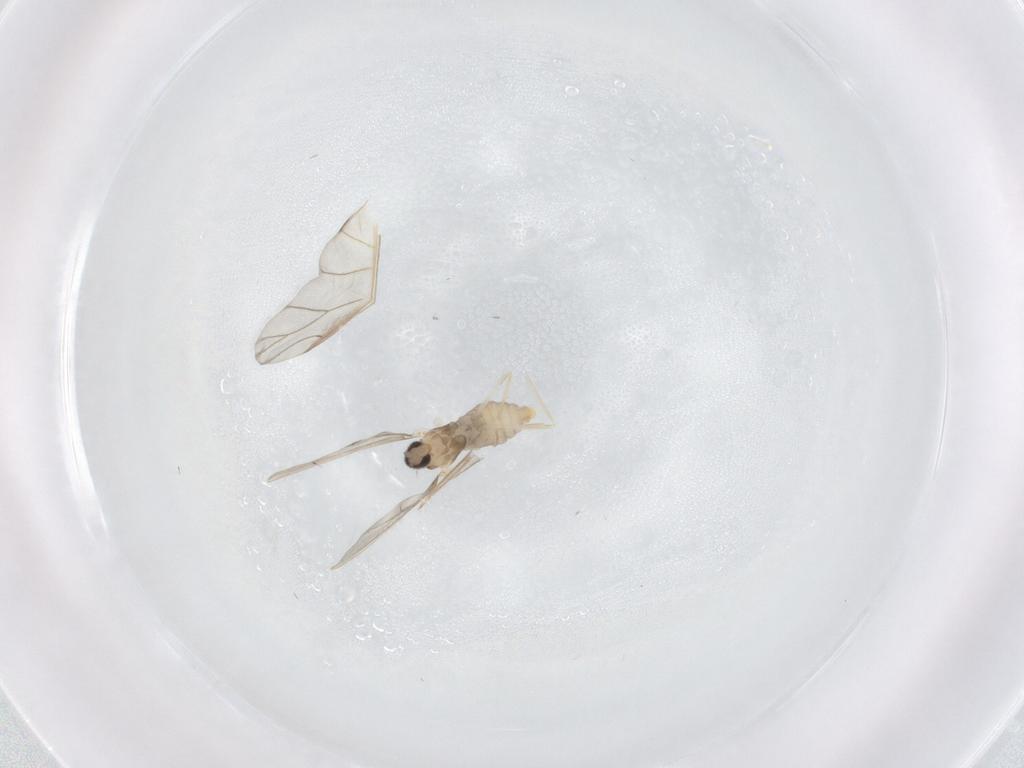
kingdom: Animalia
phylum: Arthropoda
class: Insecta
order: Diptera
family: Cecidomyiidae
